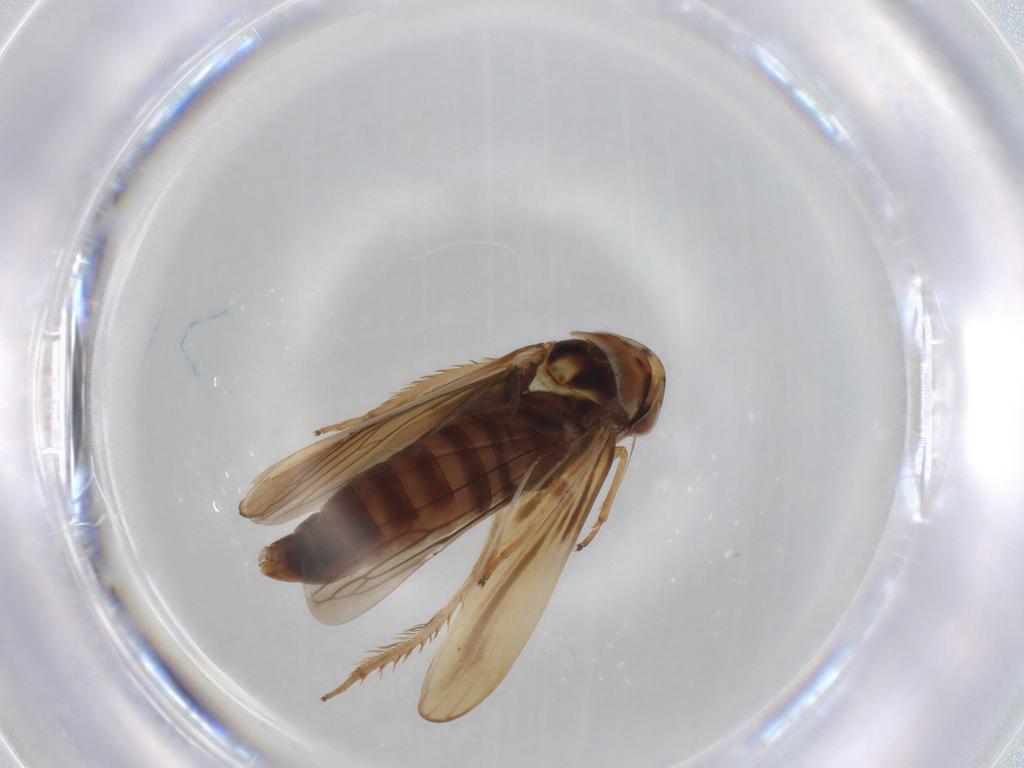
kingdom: Animalia
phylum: Arthropoda
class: Insecta
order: Hemiptera
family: Cicadellidae
